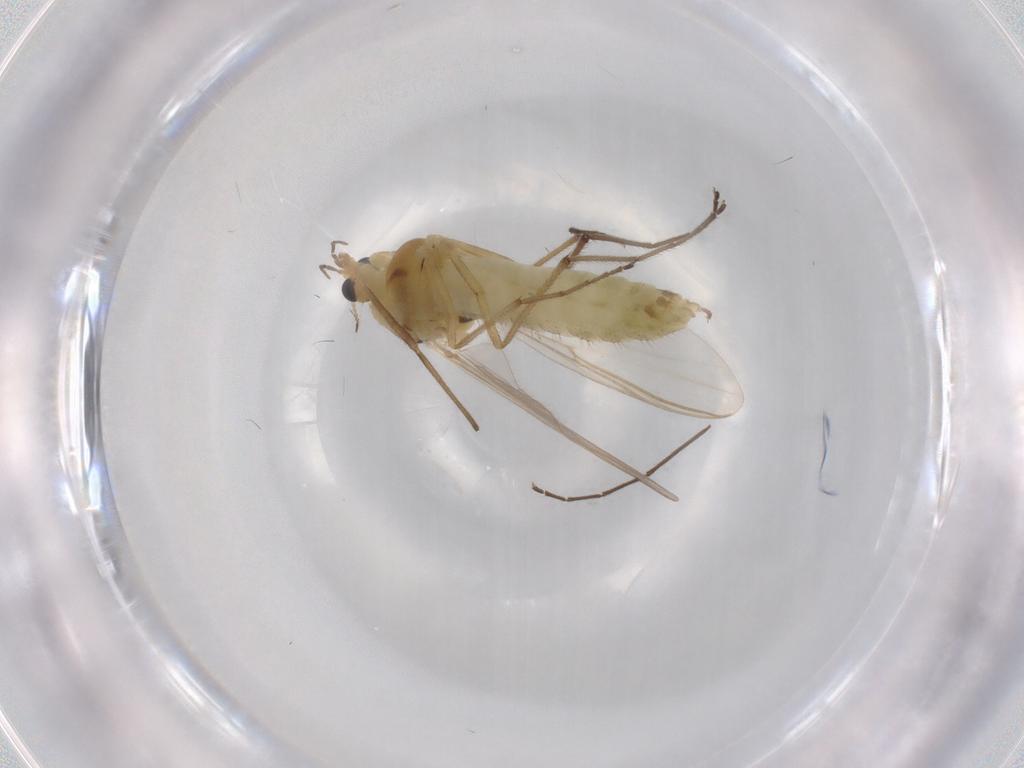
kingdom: Animalia
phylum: Arthropoda
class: Insecta
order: Diptera
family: Chironomidae
